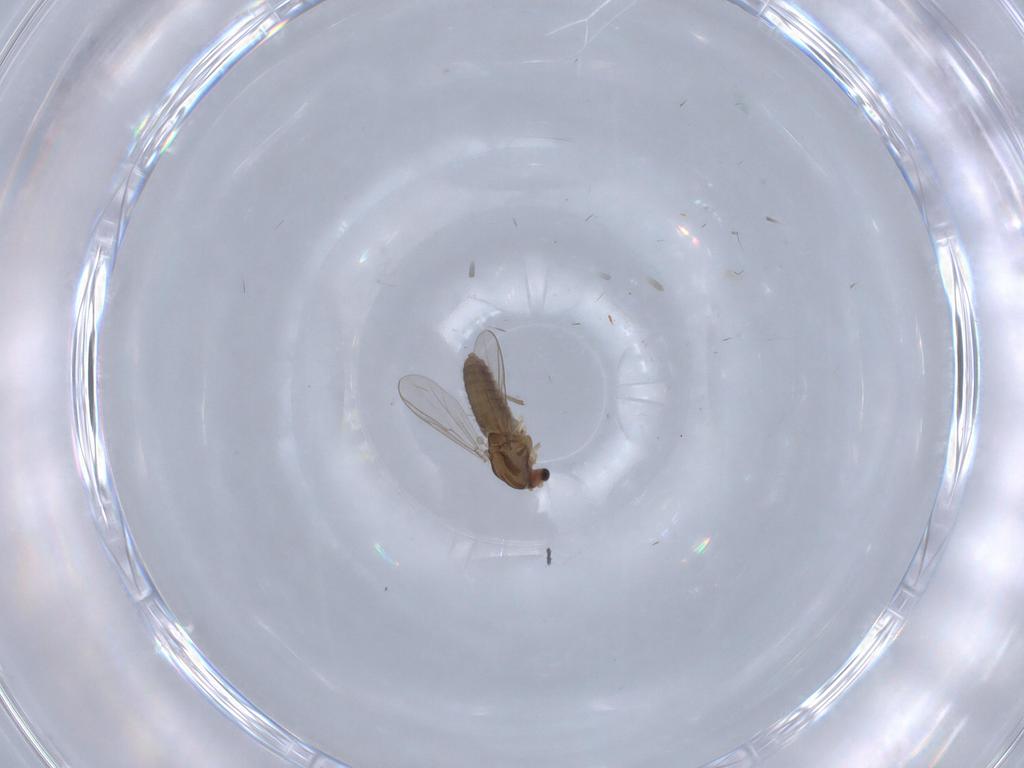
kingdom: Animalia
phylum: Arthropoda
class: Insecta
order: Diptera
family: Chironomidae
